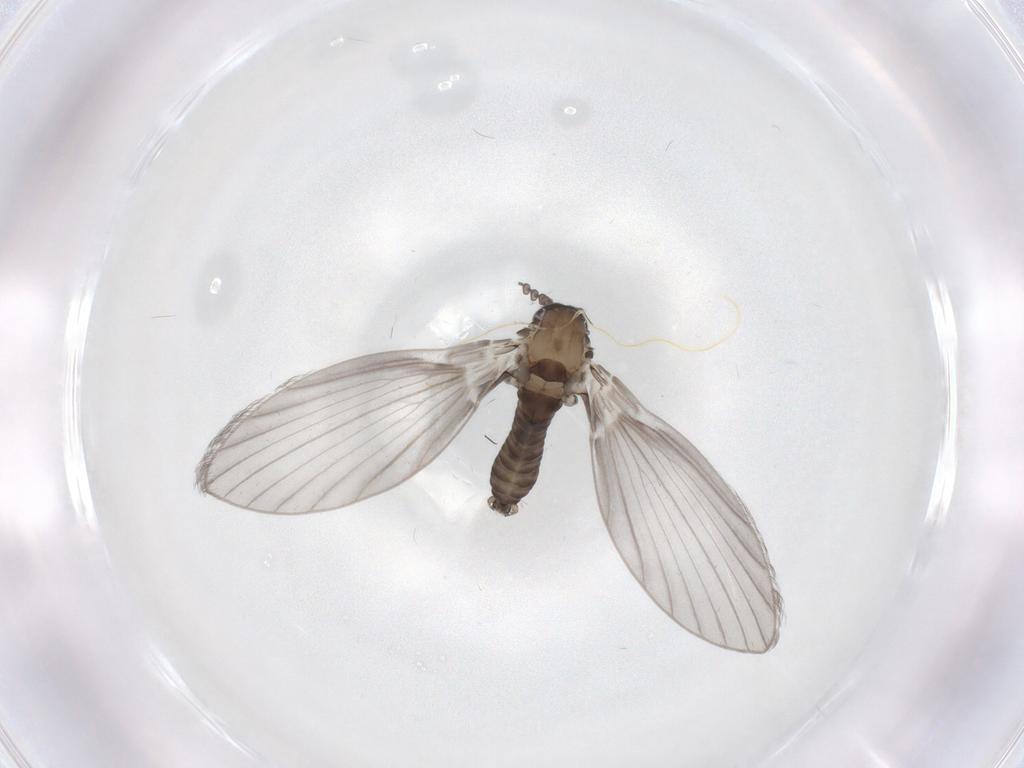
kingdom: Animalia
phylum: Arthropoda
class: Insecta
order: Diptera
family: Psychodidae
